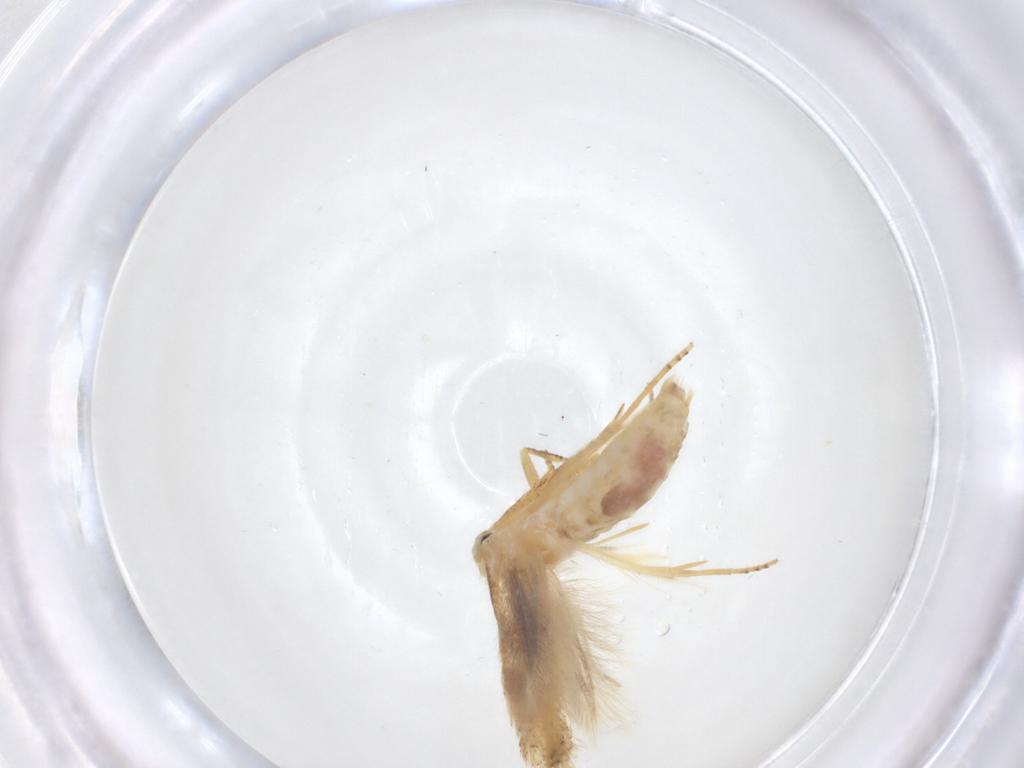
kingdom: Animalia
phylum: Arthropoda
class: Insecta
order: Lepidoptera
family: Bucculatricidae
